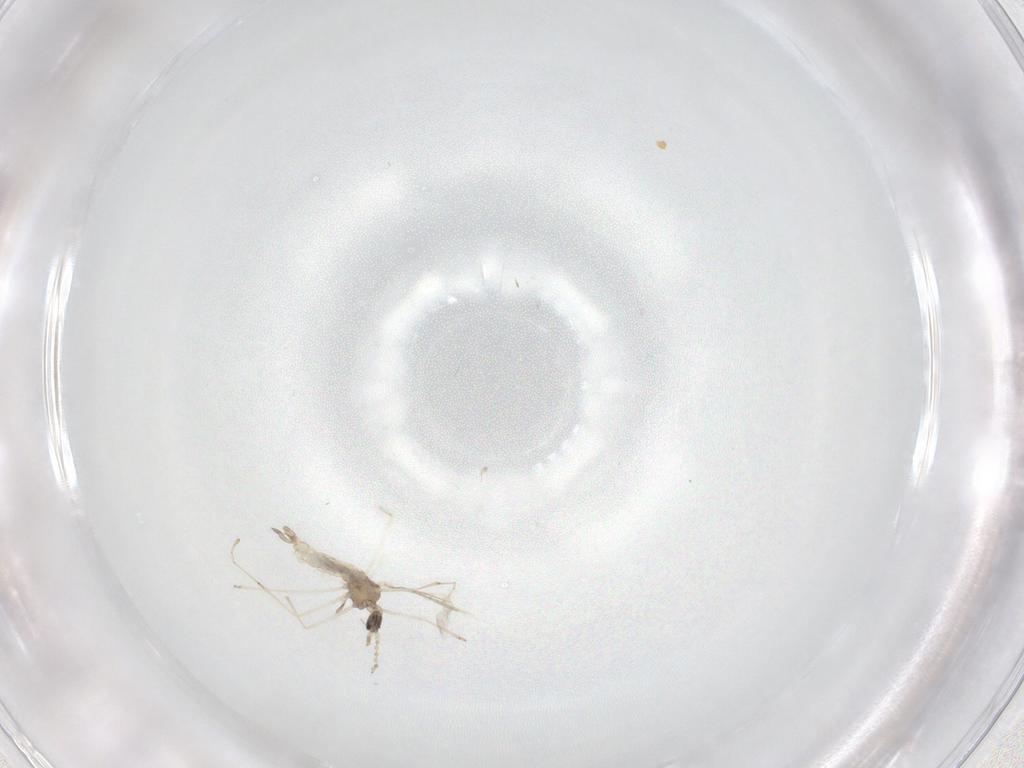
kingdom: Animalia
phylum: Arthropoda
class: Insecta
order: Diptera
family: Cecidomyiidae
